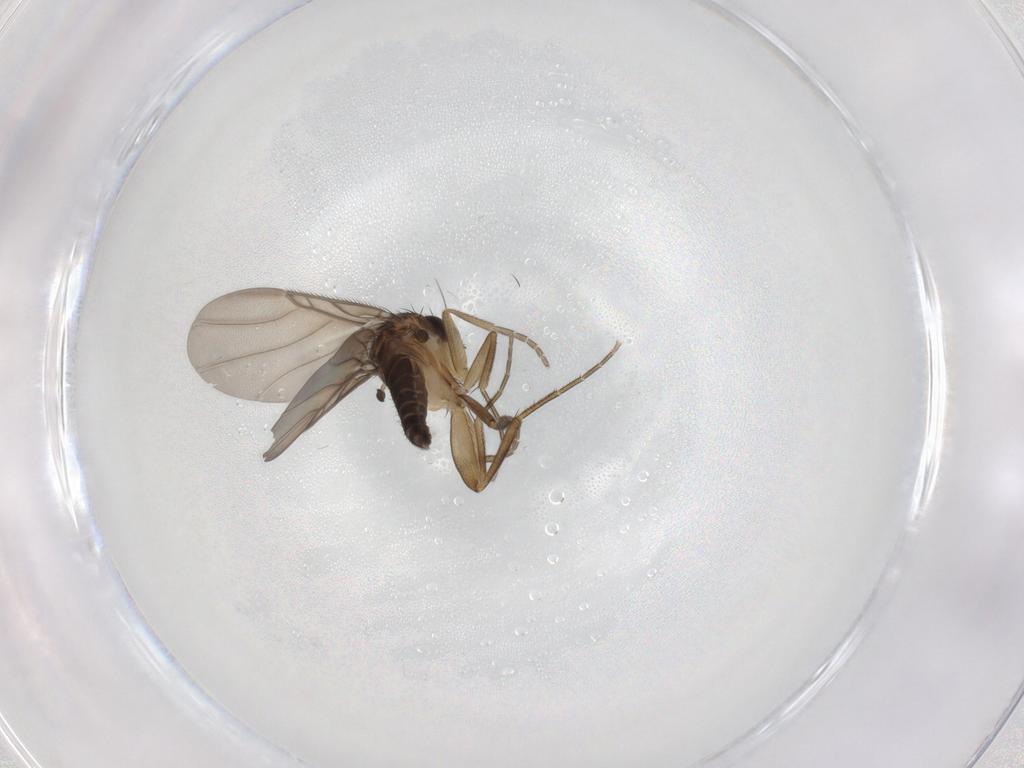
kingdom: Animalia
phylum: Arthropoda
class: Insecta
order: Diptera
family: Phoridae
